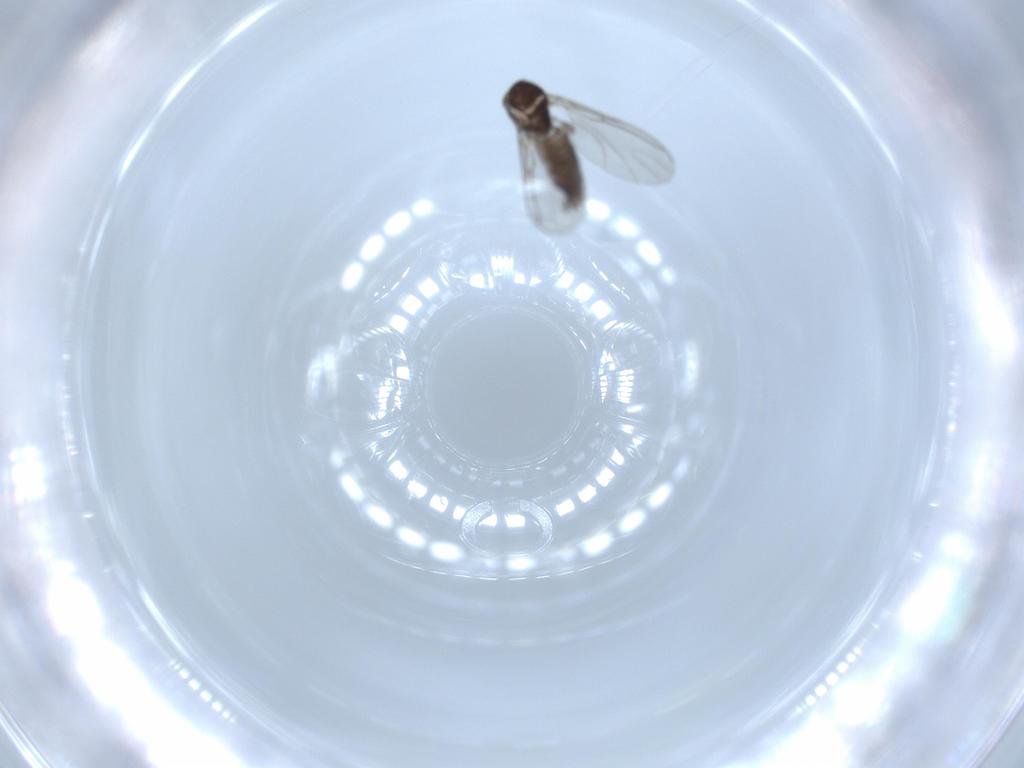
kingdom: Animalia
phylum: Arthropoda
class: Insecta
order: Diptera
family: Sciaridae
